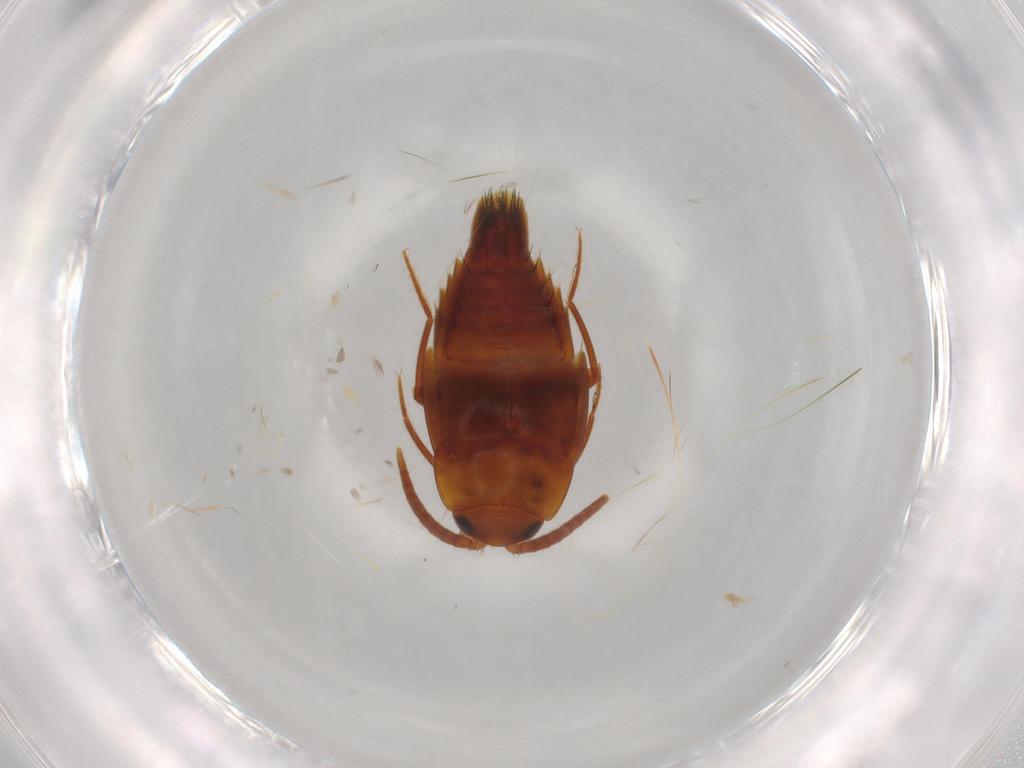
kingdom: Animalia
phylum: Arthropoda
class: Insecta
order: Coleoptera
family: Staphylinidae
